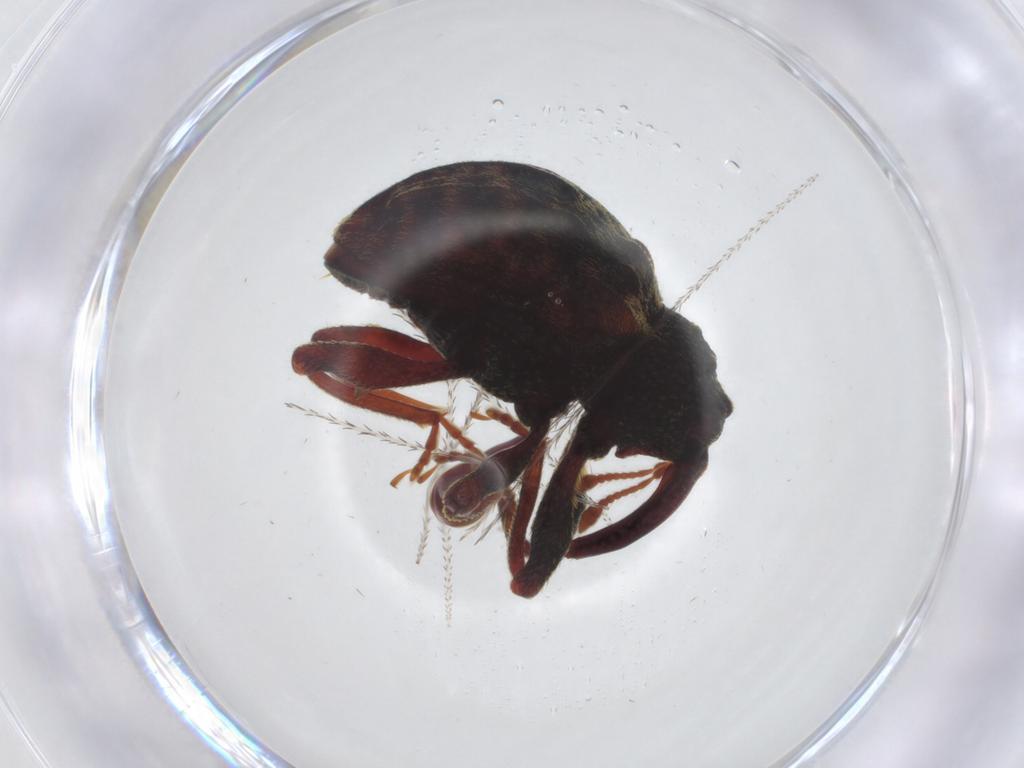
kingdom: Animalia
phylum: Arthropoda
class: Insecta
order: Coleoptera
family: Curculionidae
